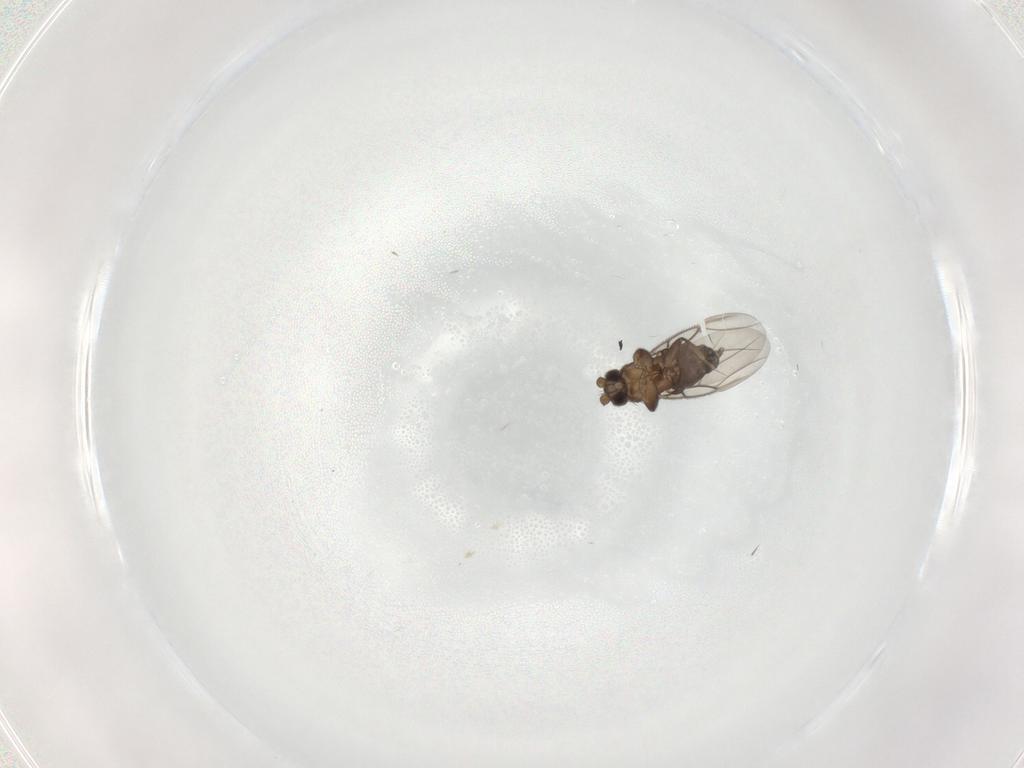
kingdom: Animalia
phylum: Arthropoda
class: Insecta
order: Diptera
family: Phoridae
